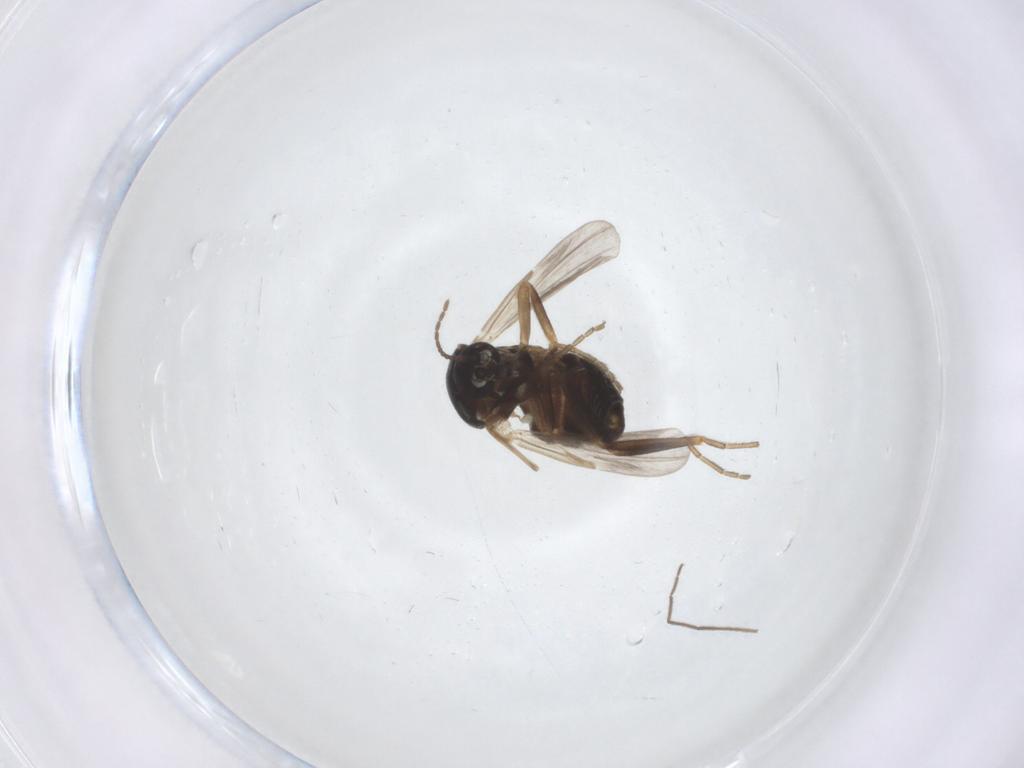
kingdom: Animalia
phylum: Arthropoda
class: Insecta
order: Diptera
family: Ceratopogonidae
